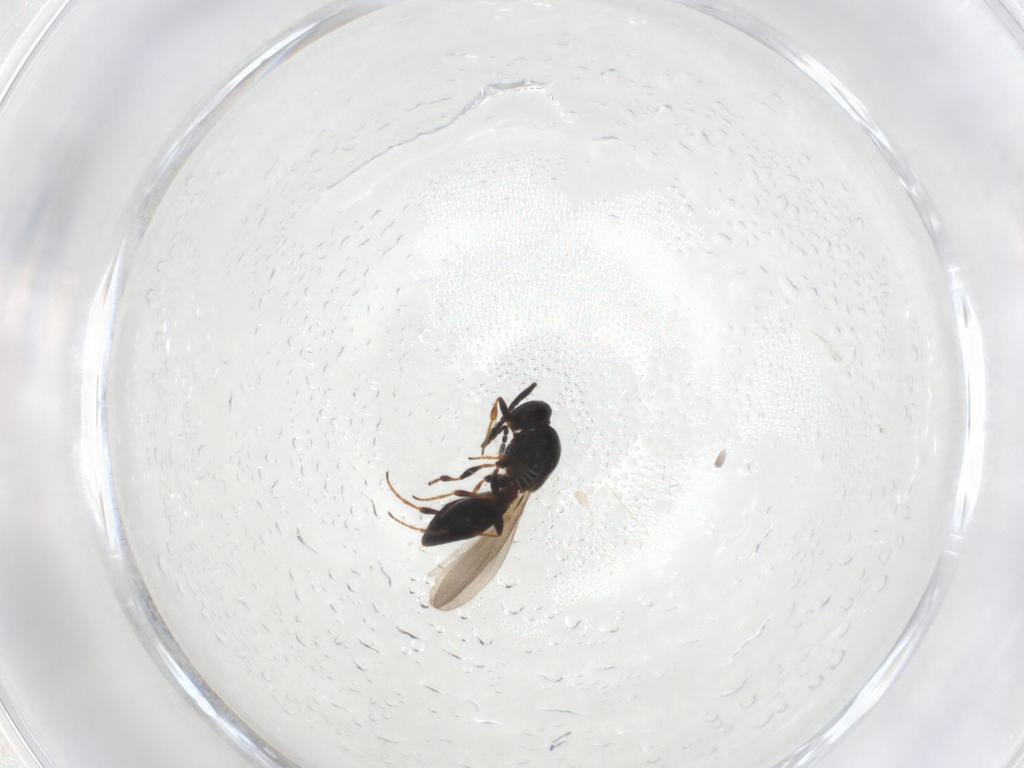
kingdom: Animalia
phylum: Arthropoda
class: Insecta
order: Hymenoptera
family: Platygastridae
